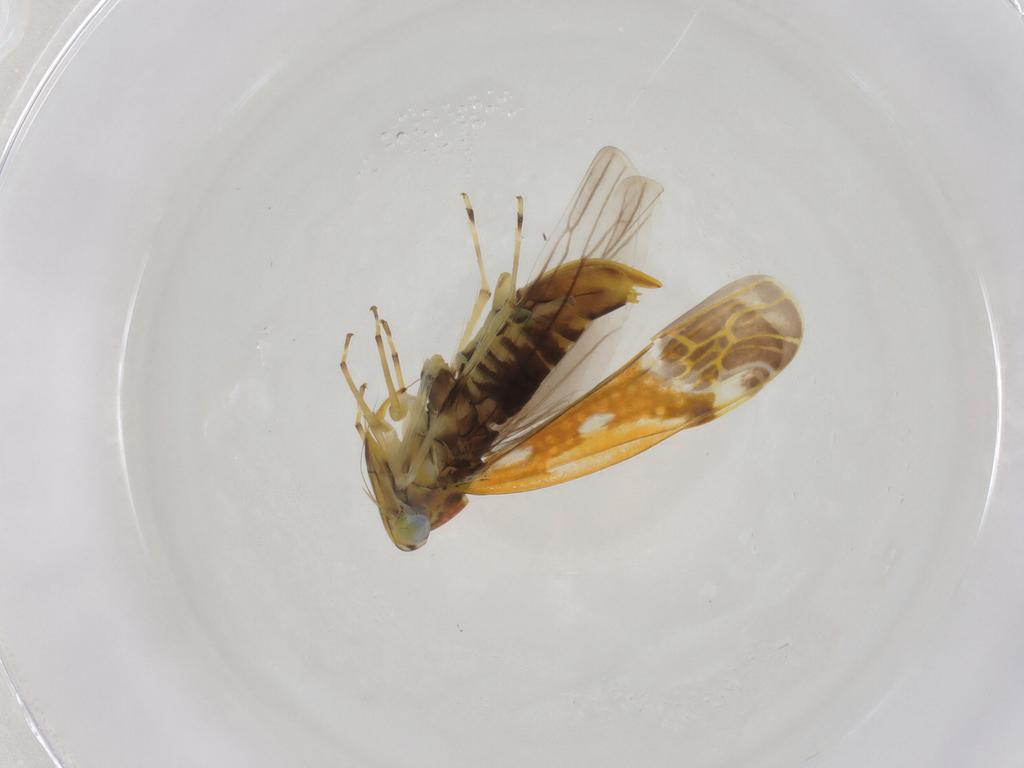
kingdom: Animalia
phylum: Arthropoda
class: Insecta
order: Hemiptera
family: Cicadellidae
